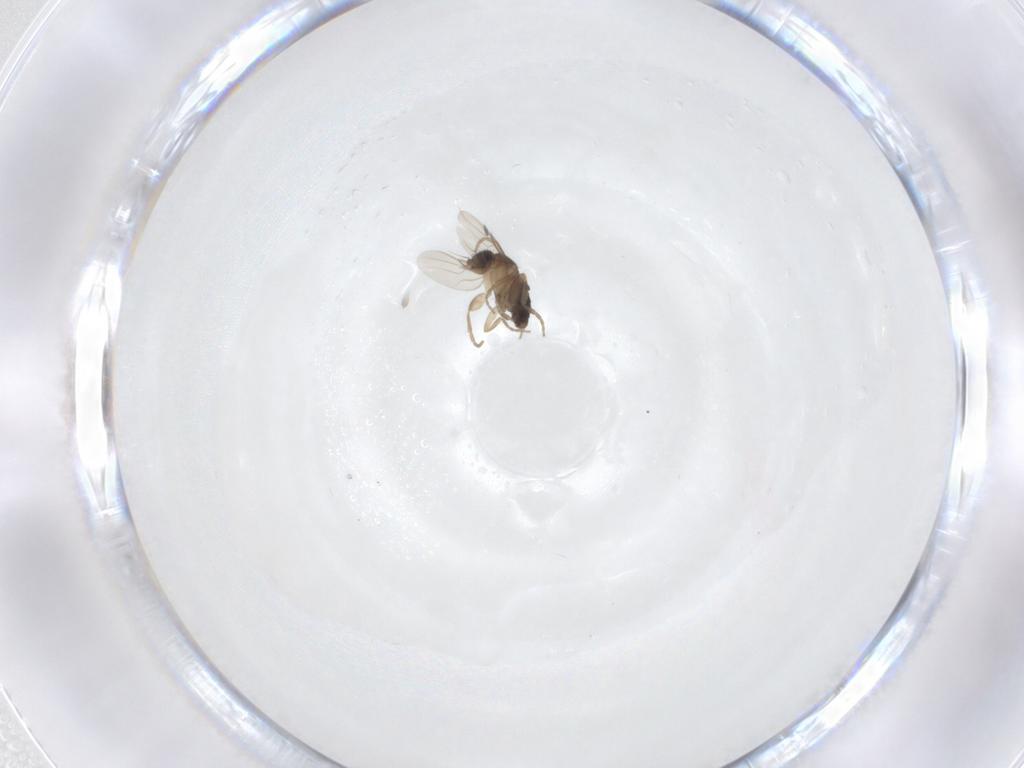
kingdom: Animalia
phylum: Arthropoda
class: Insecta
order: Diptera
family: Phoridae
